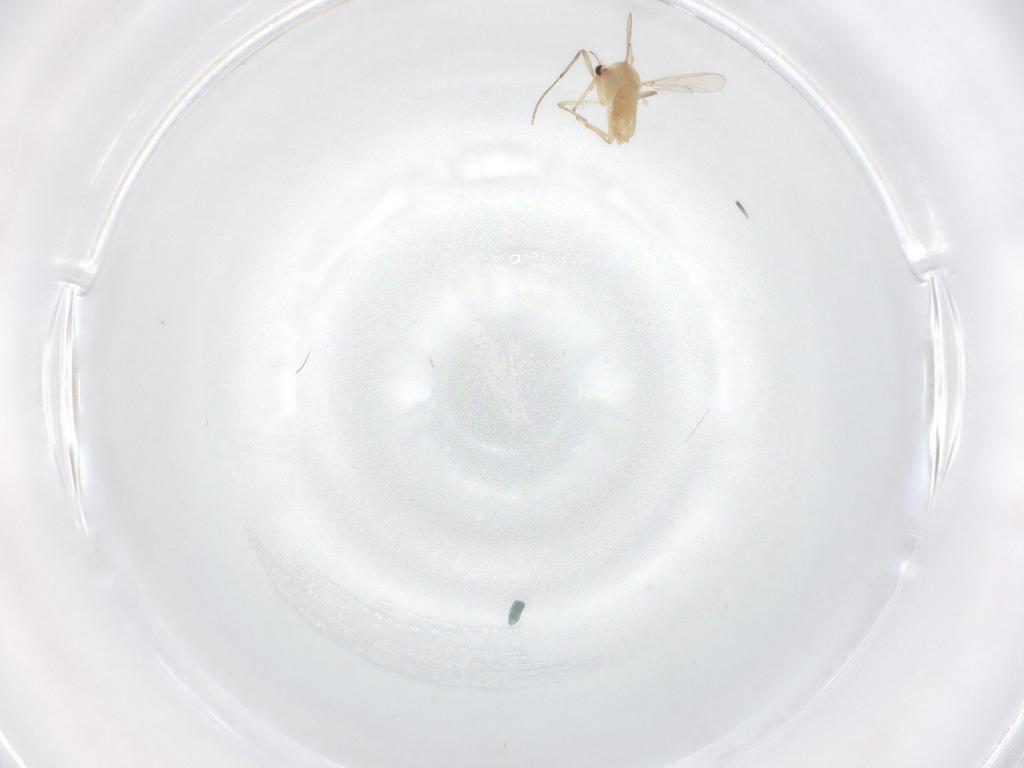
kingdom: Animalia
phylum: Arthropoda
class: Insecta
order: Diptera
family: Chironomidae
